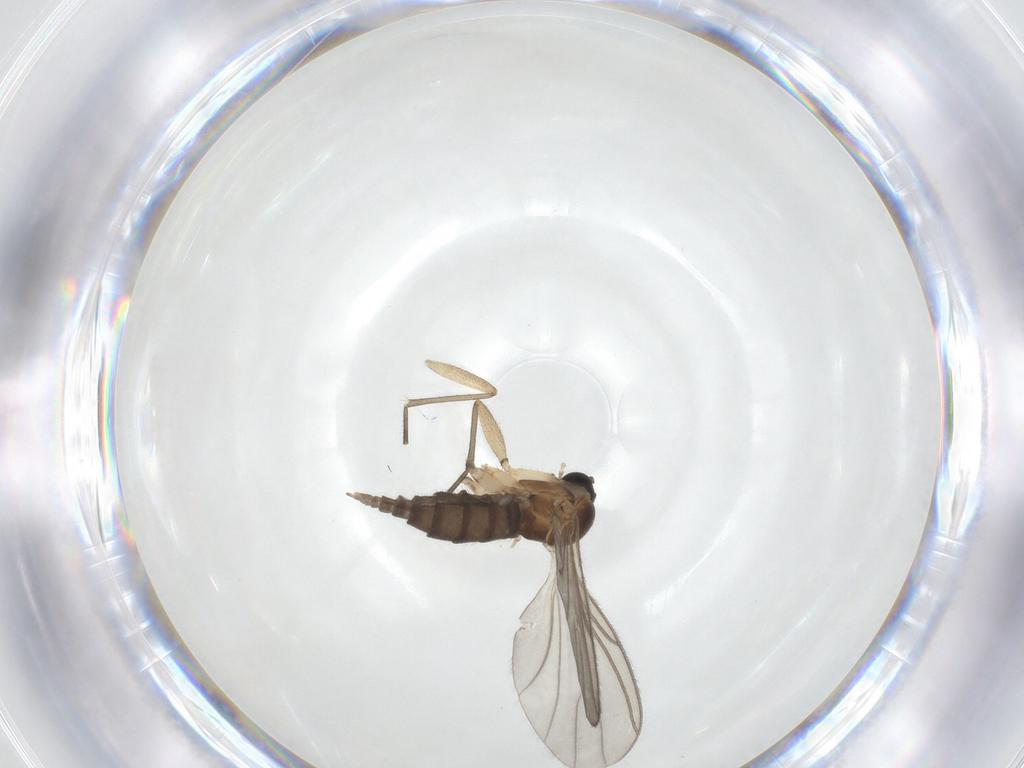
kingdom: Animalia
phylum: Arthropoda
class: Insecta
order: Diptera
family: Sciaridae
